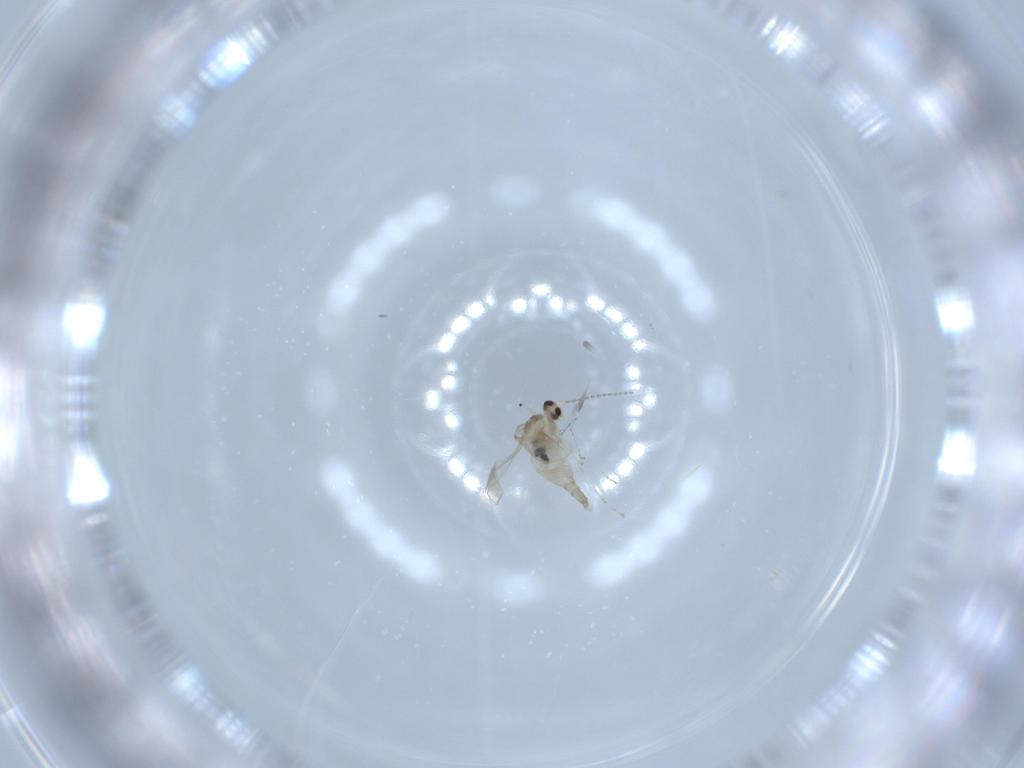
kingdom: Animalia
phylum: Arthropoda
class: Insecta
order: Diptera
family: Cecidomyiidae
